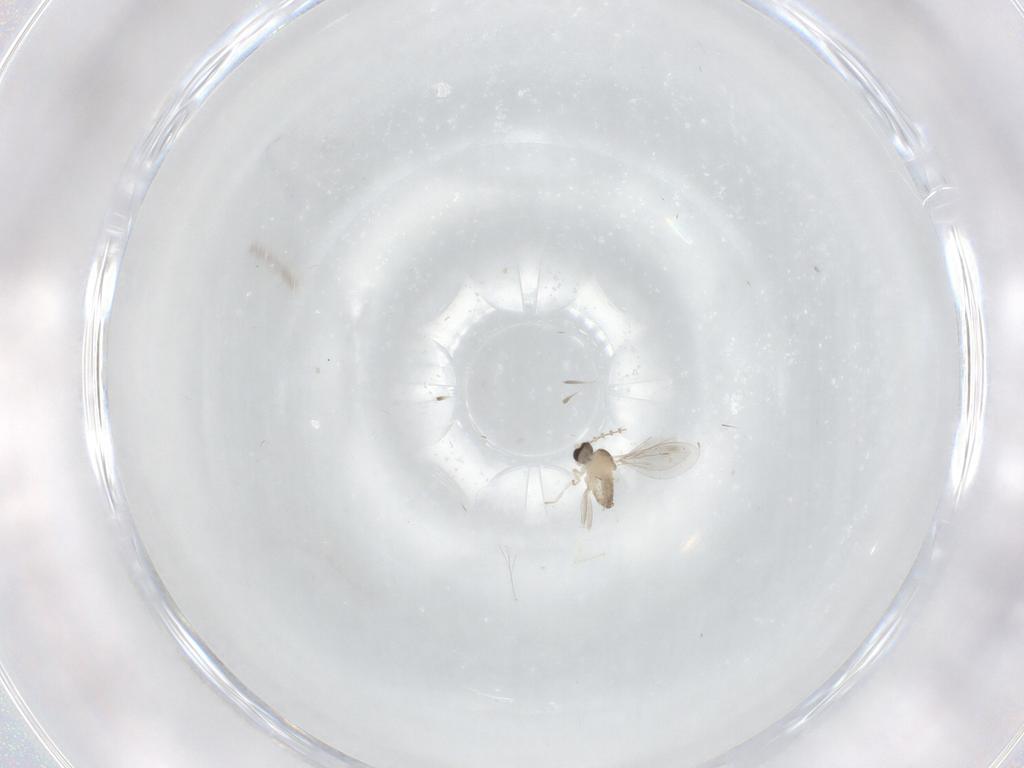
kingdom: Animalia
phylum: Arthropoda
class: Insecta
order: Diptera
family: Cecidomyiidae
